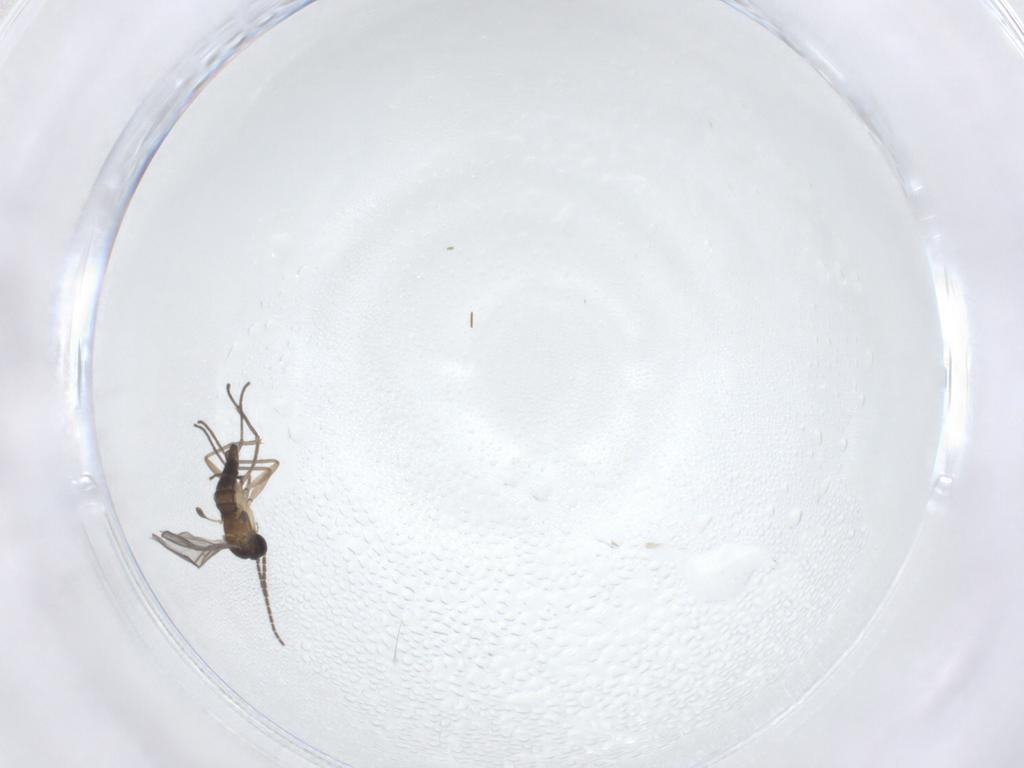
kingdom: Animalia
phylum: Arthropoda
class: Insecta
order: Diptera
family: Sciaridae
